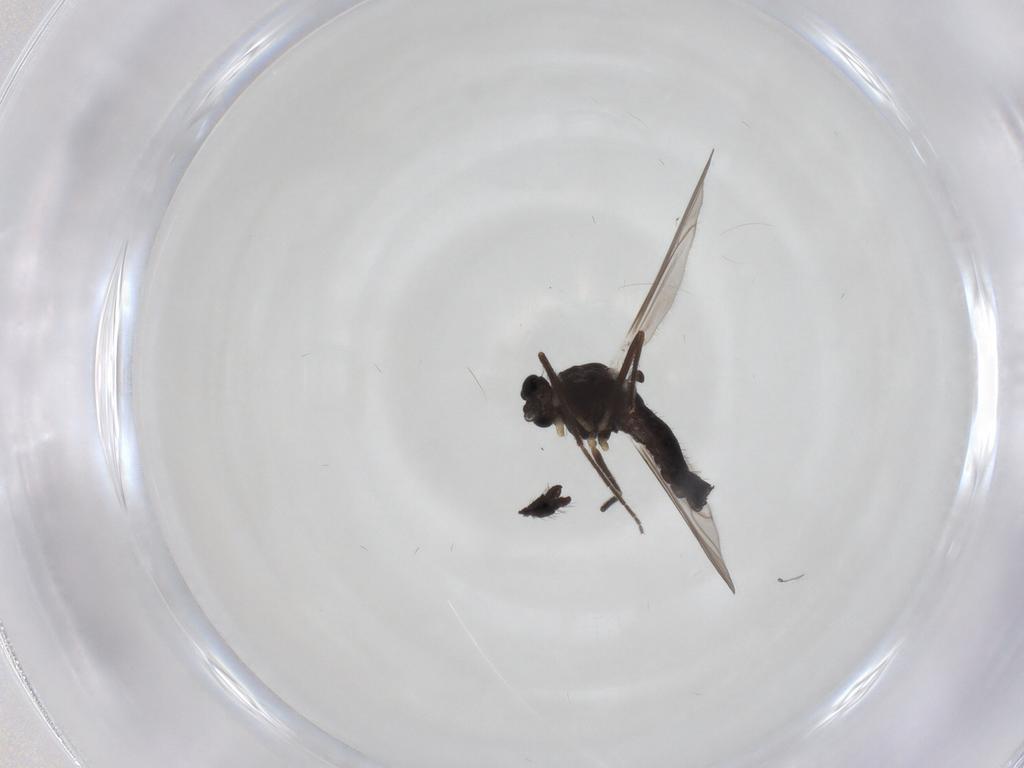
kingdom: Animalia
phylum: Arthropoda
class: Insecta
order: Diptera
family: Chironomidae
